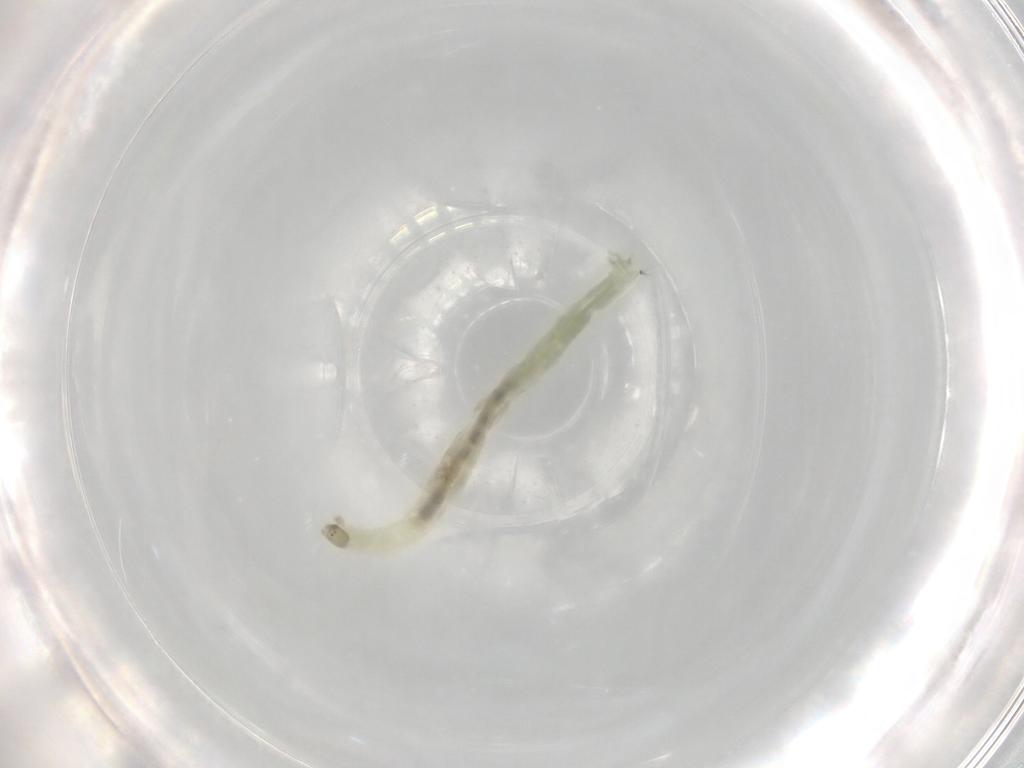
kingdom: Animalia
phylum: Arthropoda
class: Insecta
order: Diptera
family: Chironomidae
